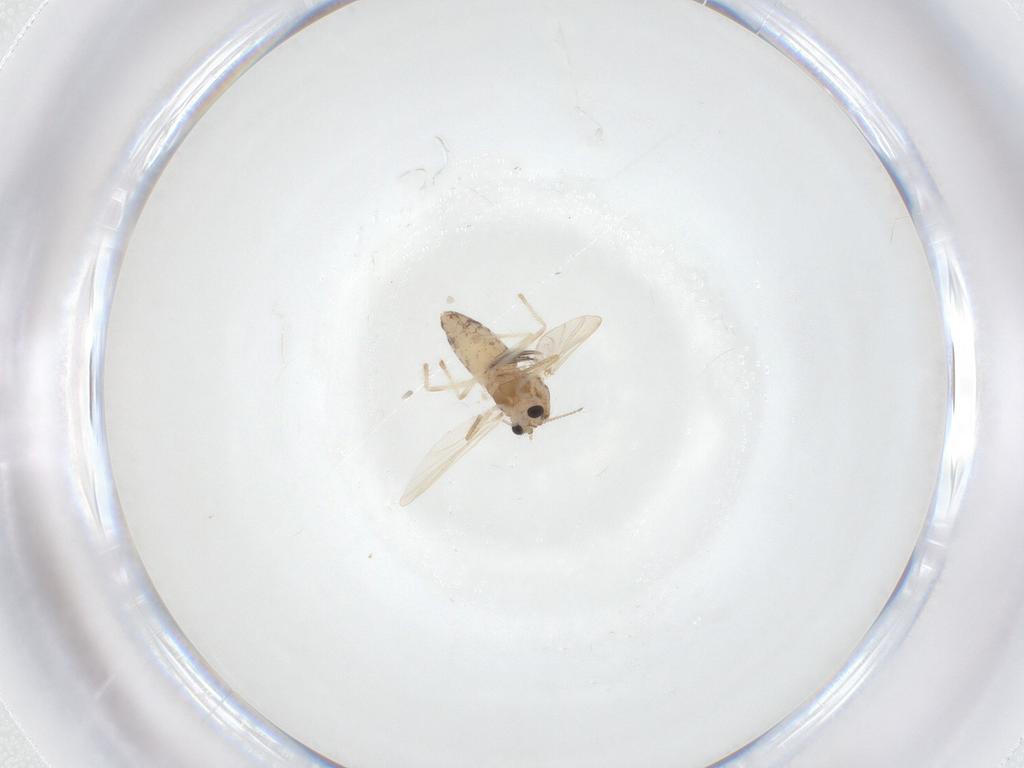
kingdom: Animalia
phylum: Arthropoda
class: Insecta
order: Diptera
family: Chironomidae
